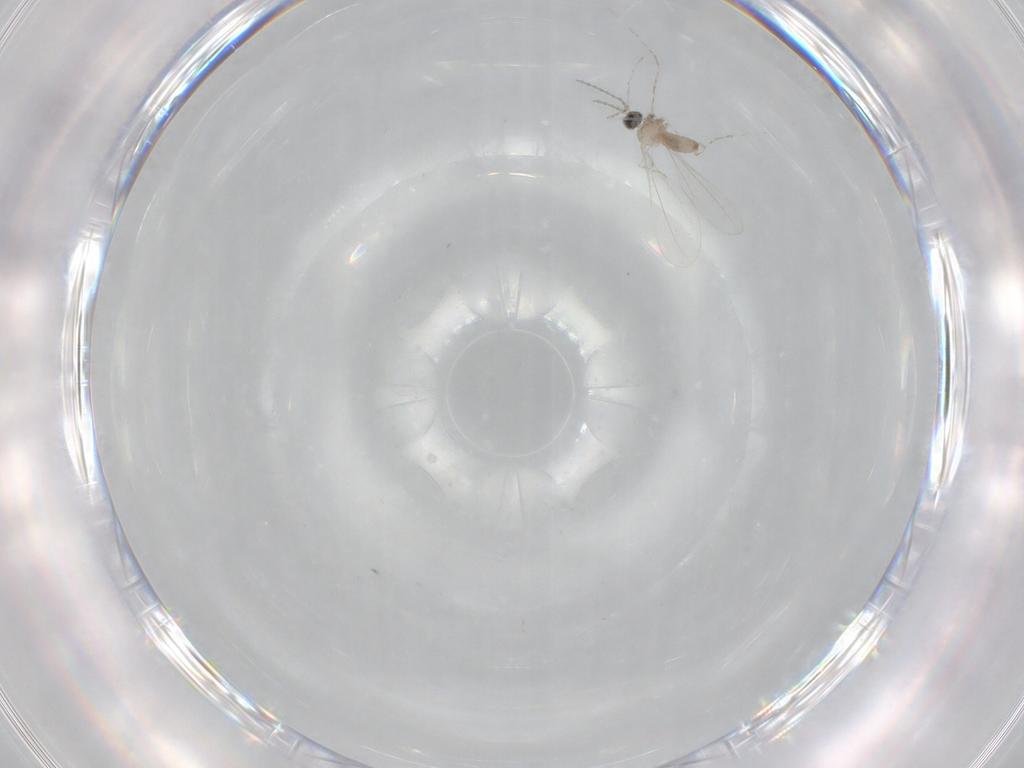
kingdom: Animalia
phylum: Arthropoda
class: Insecta
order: Diptera
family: Cecidomyiidae
